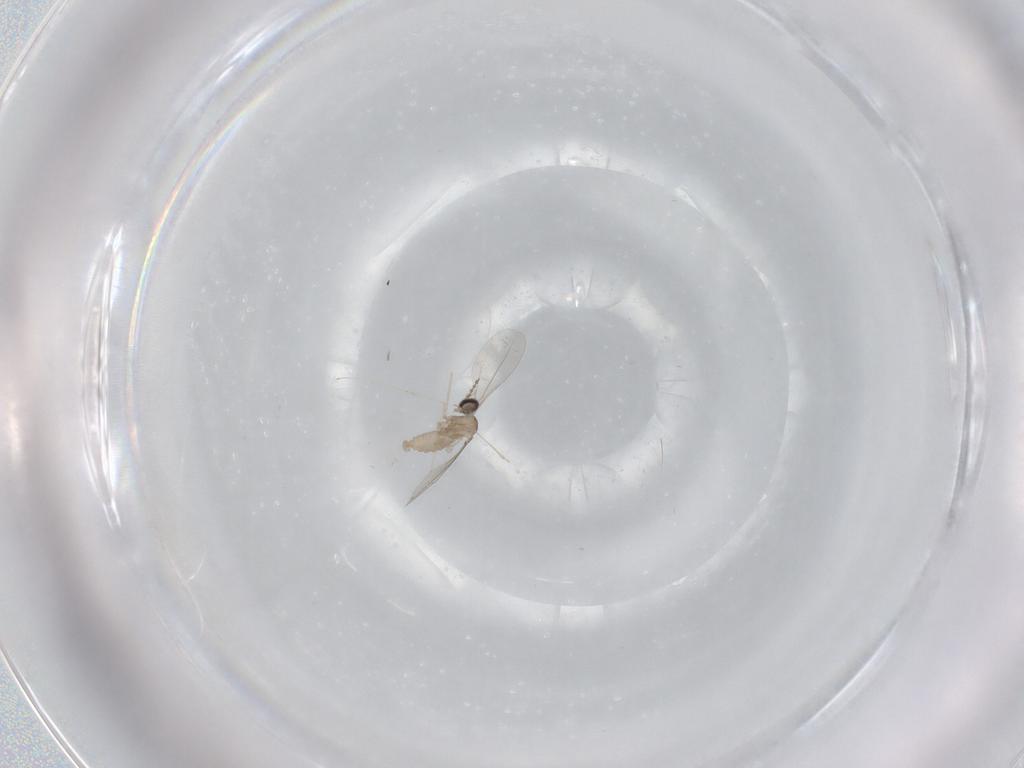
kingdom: Animalia
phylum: Arthropoda
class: Insecta
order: Diptera
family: Cecidomyiidae
